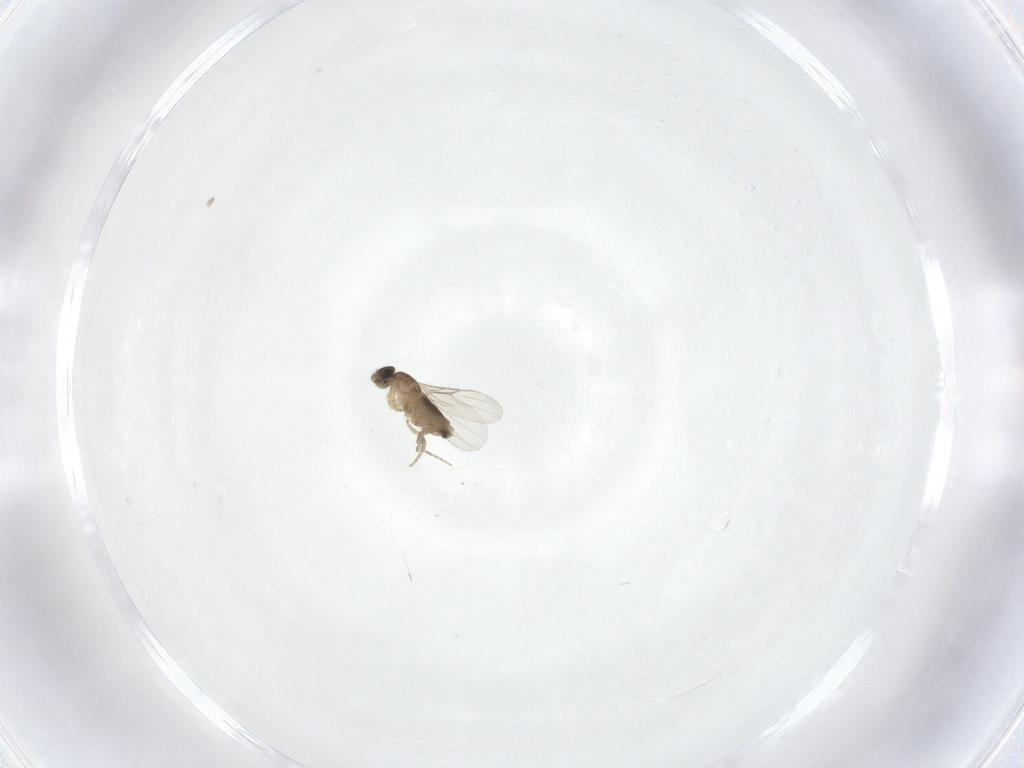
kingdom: Animalia
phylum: Arthropoda
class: Insecta
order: Diptera
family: Phoridae
